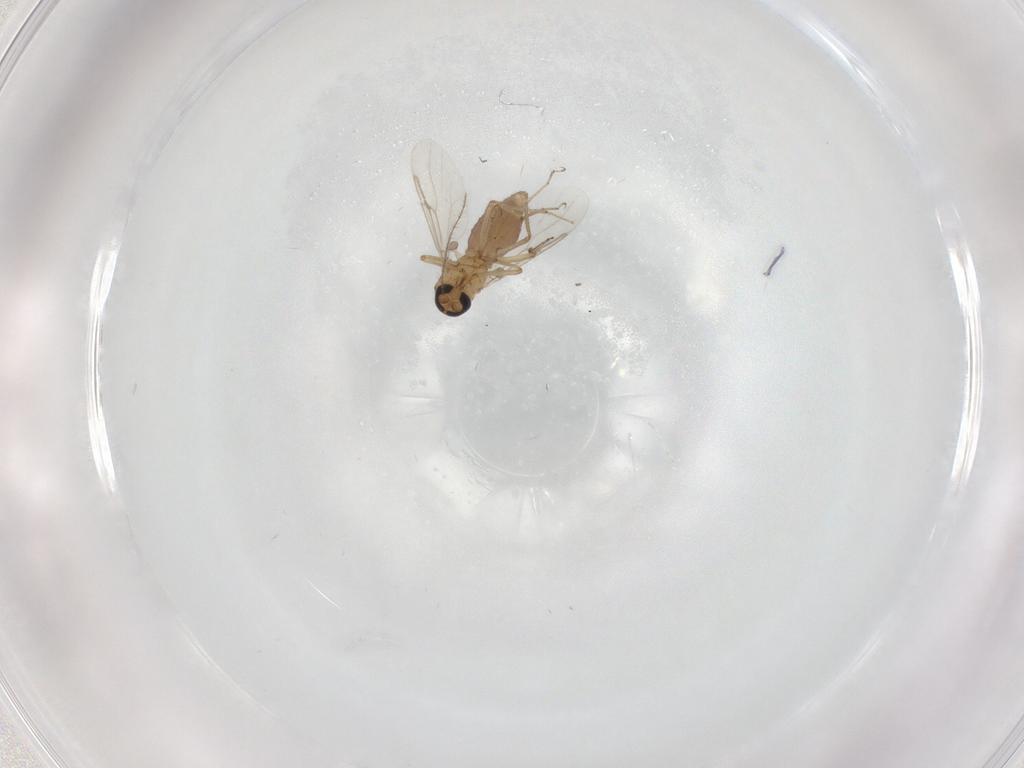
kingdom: Animalia
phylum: Arthropoda
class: Insecta
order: Diptera
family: Cecidomyiidae
